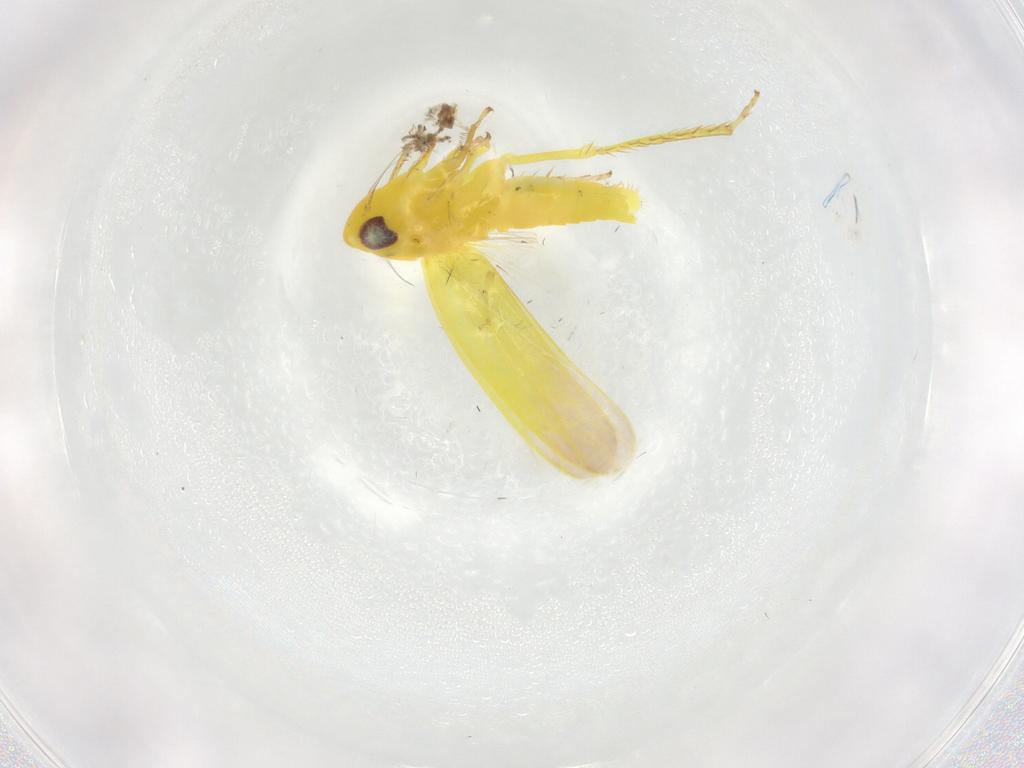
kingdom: Animalia
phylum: Arthropoda
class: Insecta
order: Hemiptera
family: Cicadellidae
